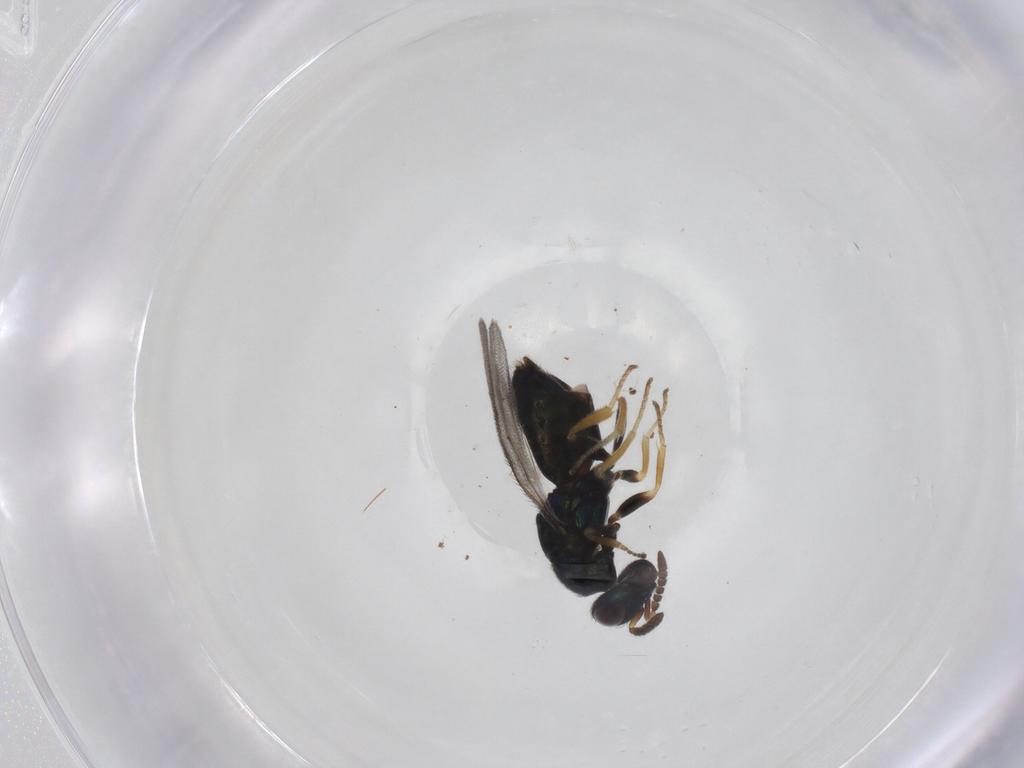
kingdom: Animalia
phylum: Arthropoda
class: Insecta
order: Hymenoptera
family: Pirenidae
